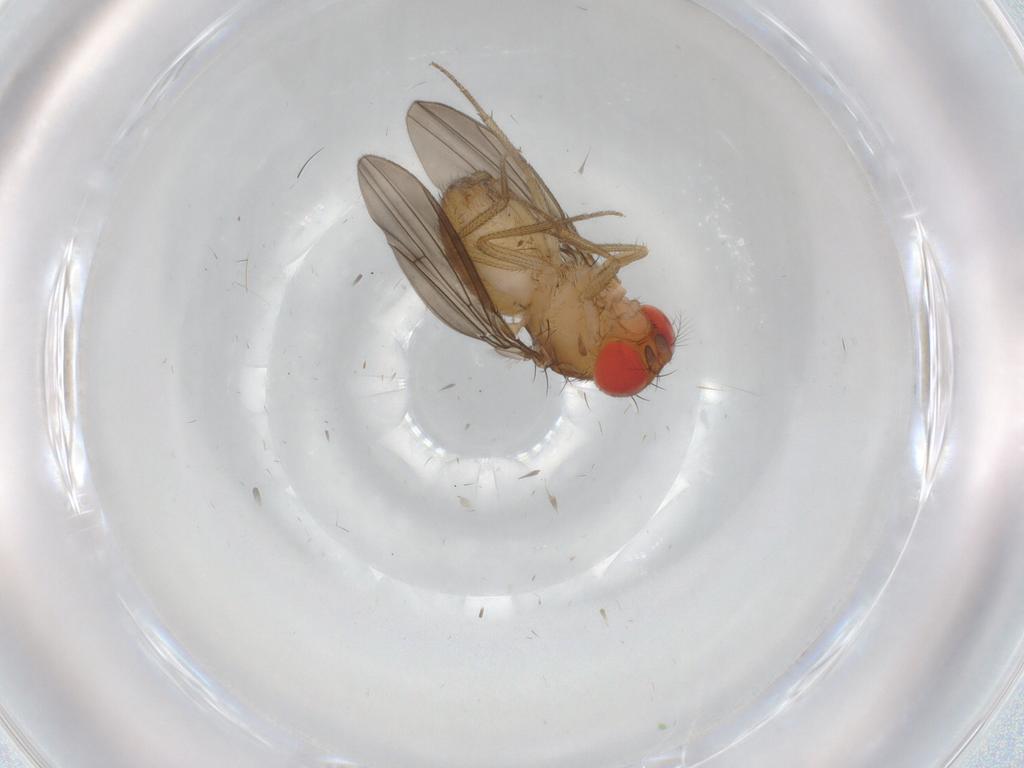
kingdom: Animalia
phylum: Arthropoda
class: Insecta
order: Diptera
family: Drosophilidae
